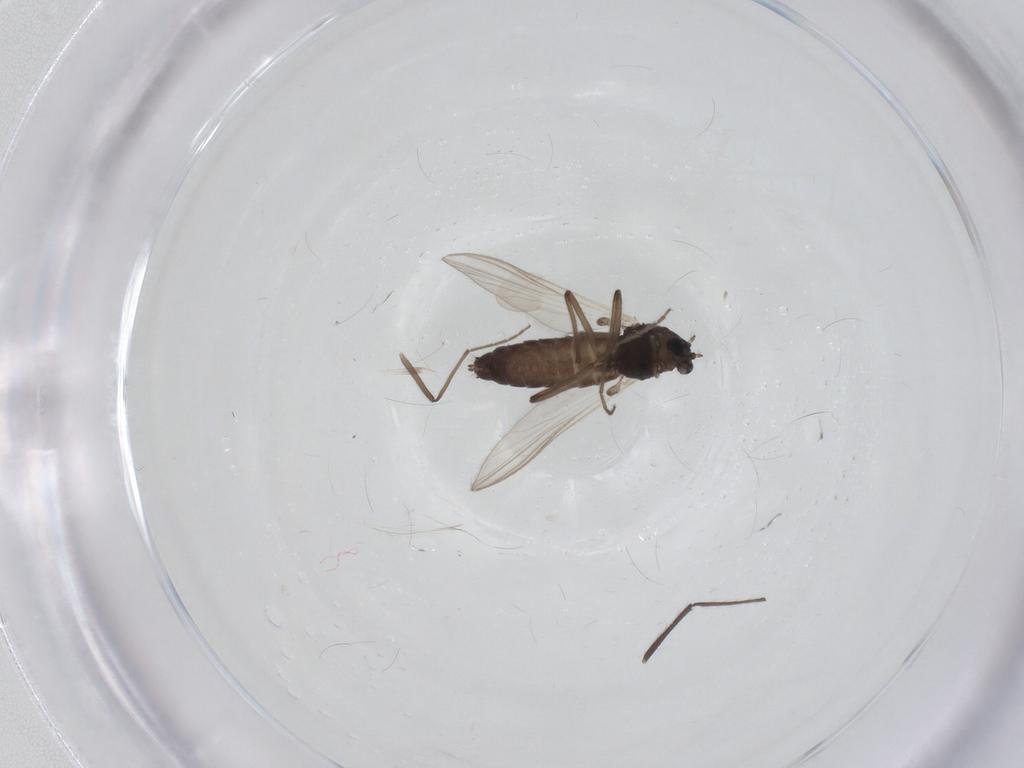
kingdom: Animalia
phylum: Arthropoda
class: Insecta
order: Diptera
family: Chironomidae
